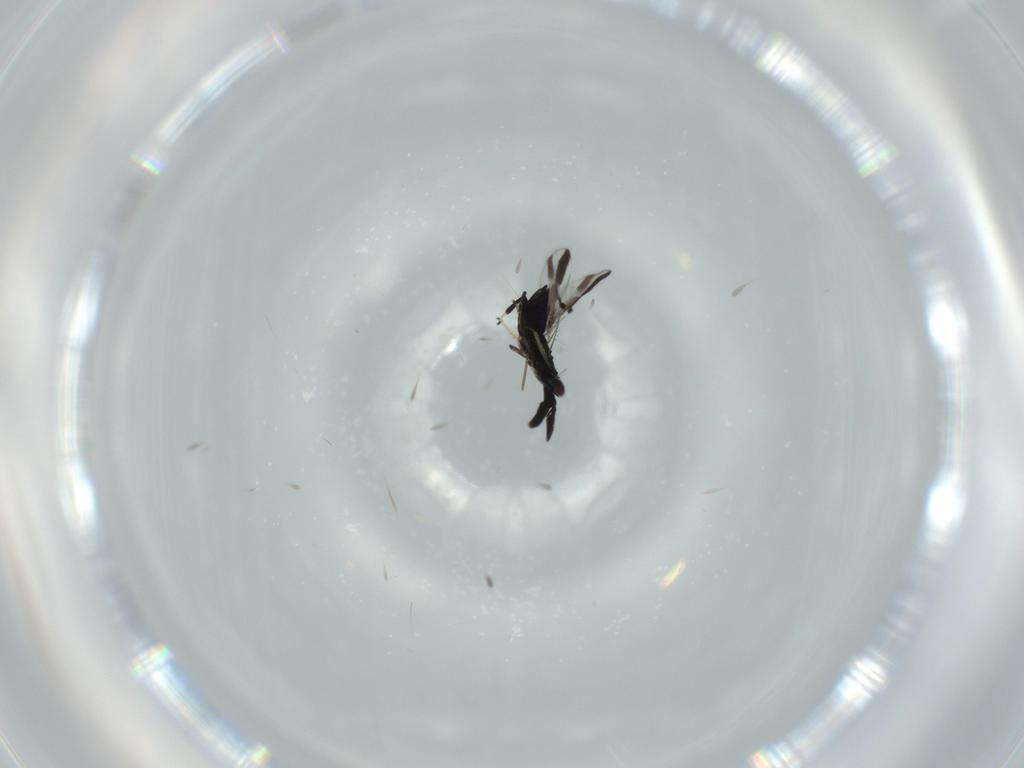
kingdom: Animalia
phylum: Arthropoda
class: Insecta
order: Hymenoptera
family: Encyrtidae
